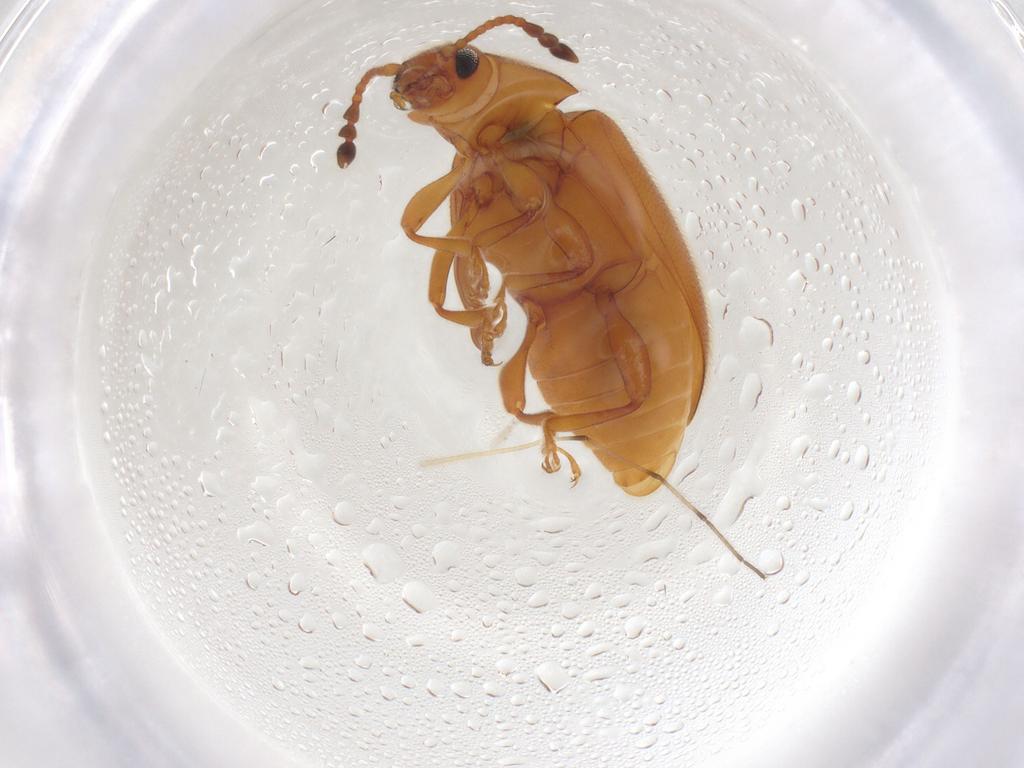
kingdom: Animalia
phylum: Arthropoda
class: Insecta
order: Coleoptera
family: Endomychidae
